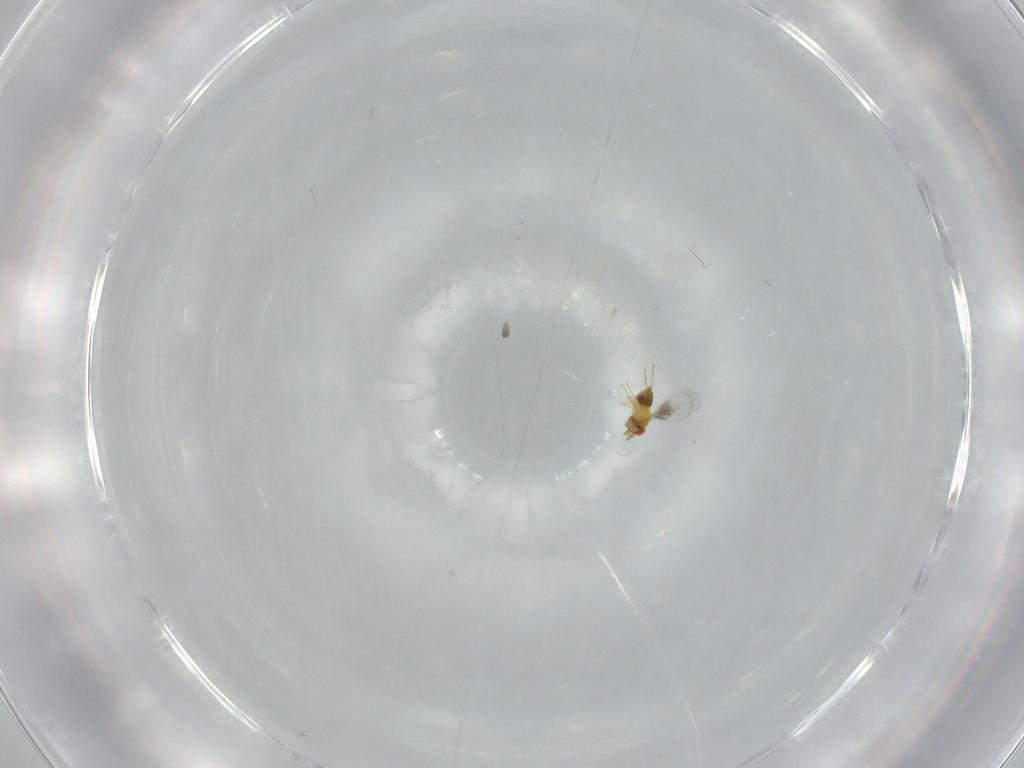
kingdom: Animalia
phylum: Arthropoda
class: Insecta
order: Hymenoptera
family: Trichogrammatidae
